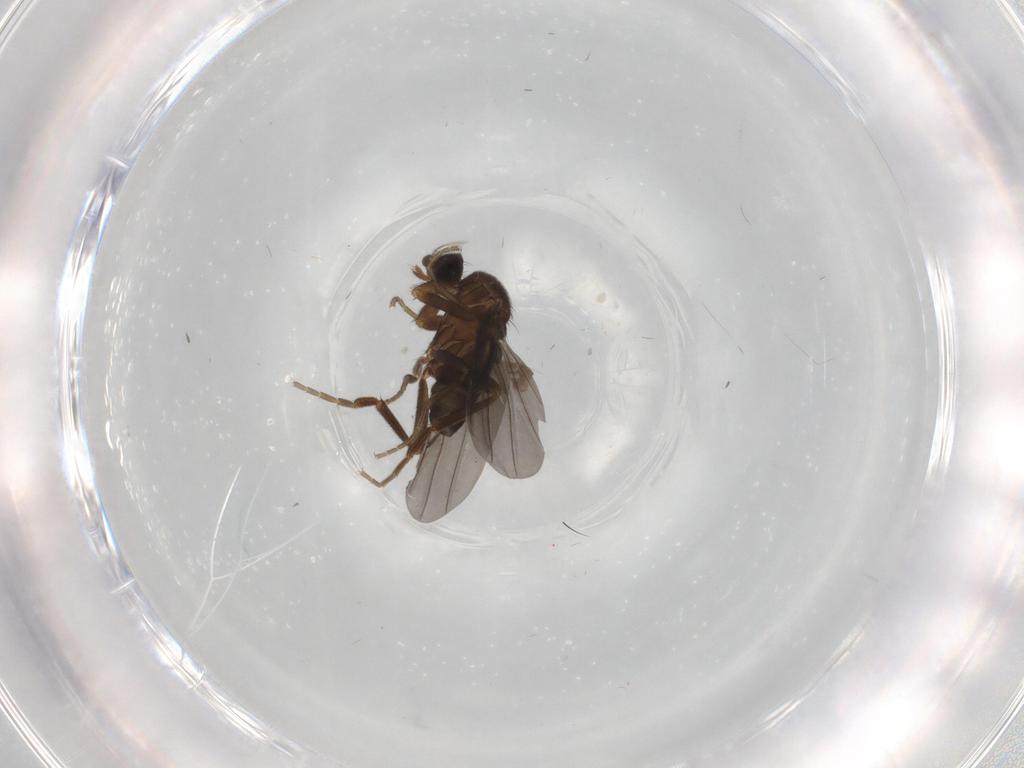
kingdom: Animalia
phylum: Arthropoda
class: Insecta
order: Diptera
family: Phoridae
